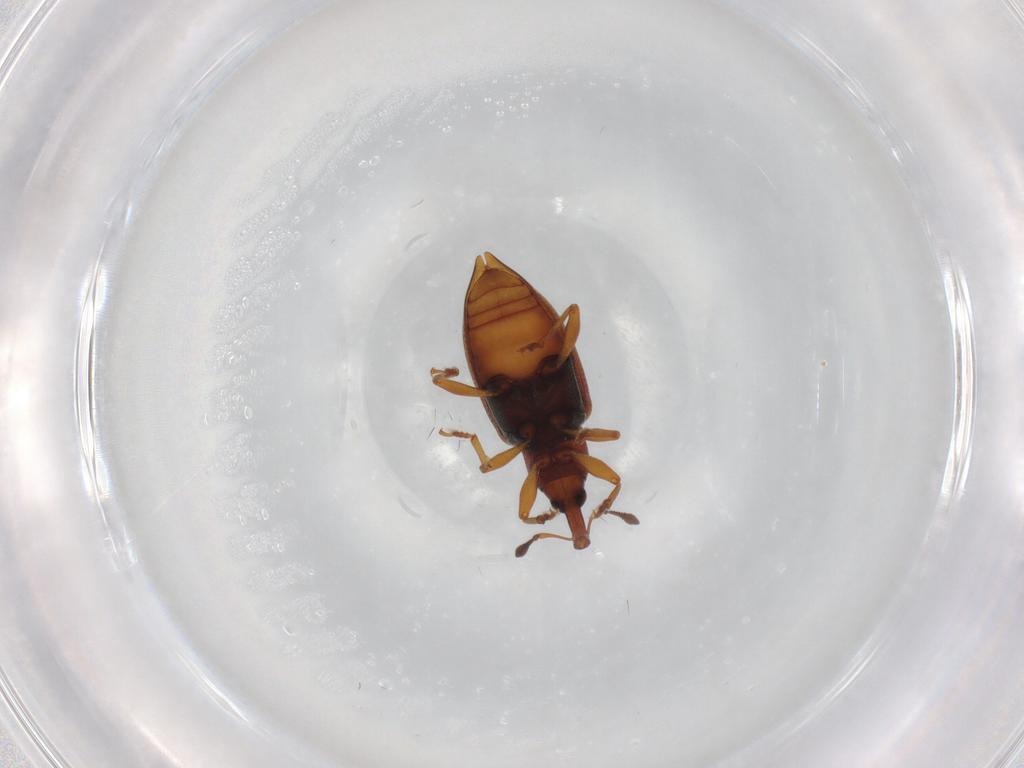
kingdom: Animalia
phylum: Arthropoda
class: Insecta
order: Coleoptera
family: Curculionidae
